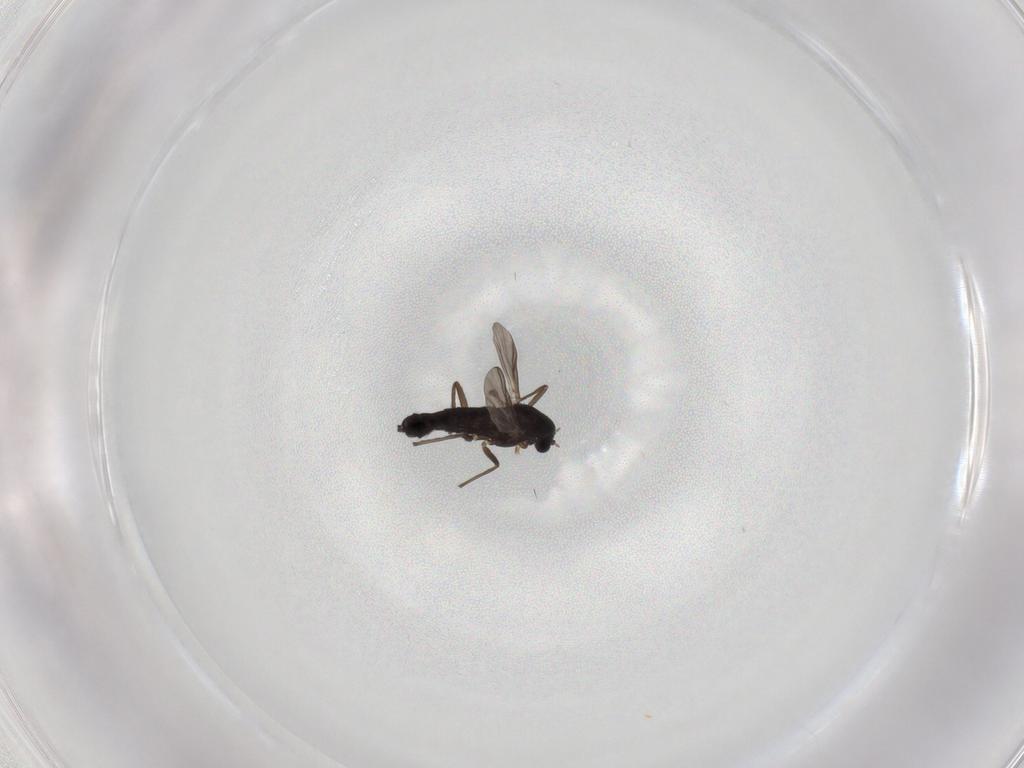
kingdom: Animalia
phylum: Arthropoda
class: Insecta
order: Diptera
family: Chironomidae
